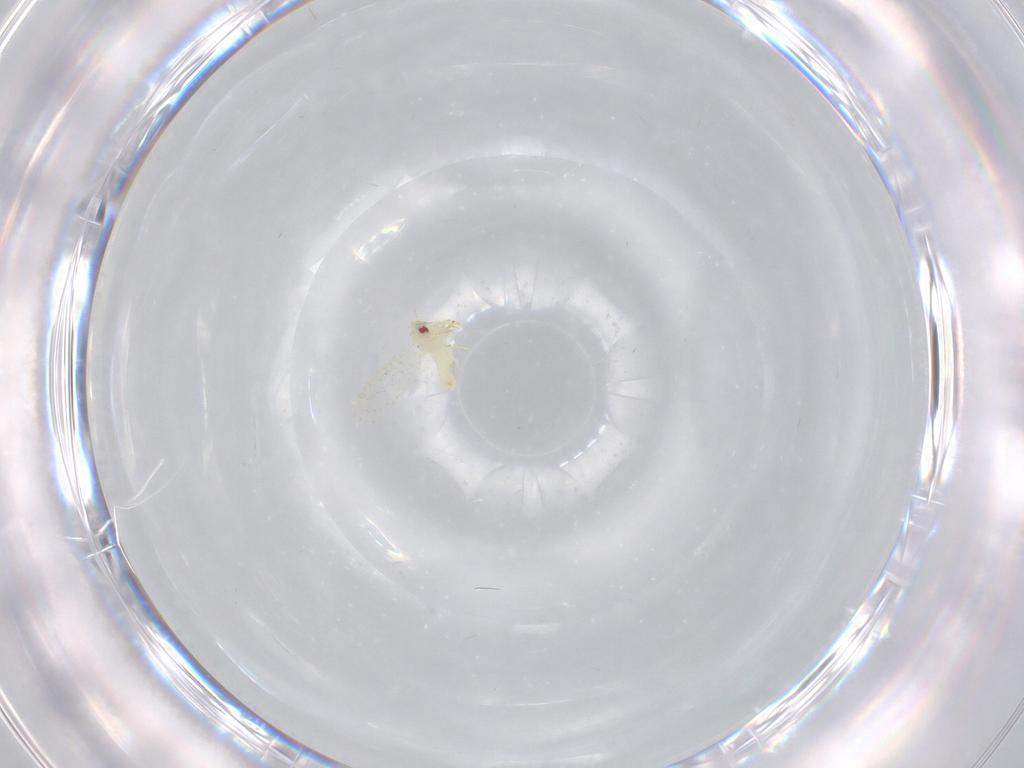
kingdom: Animalia
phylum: Arthropoda
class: Insecta
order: Hemiptera
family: Aleyrodidae
